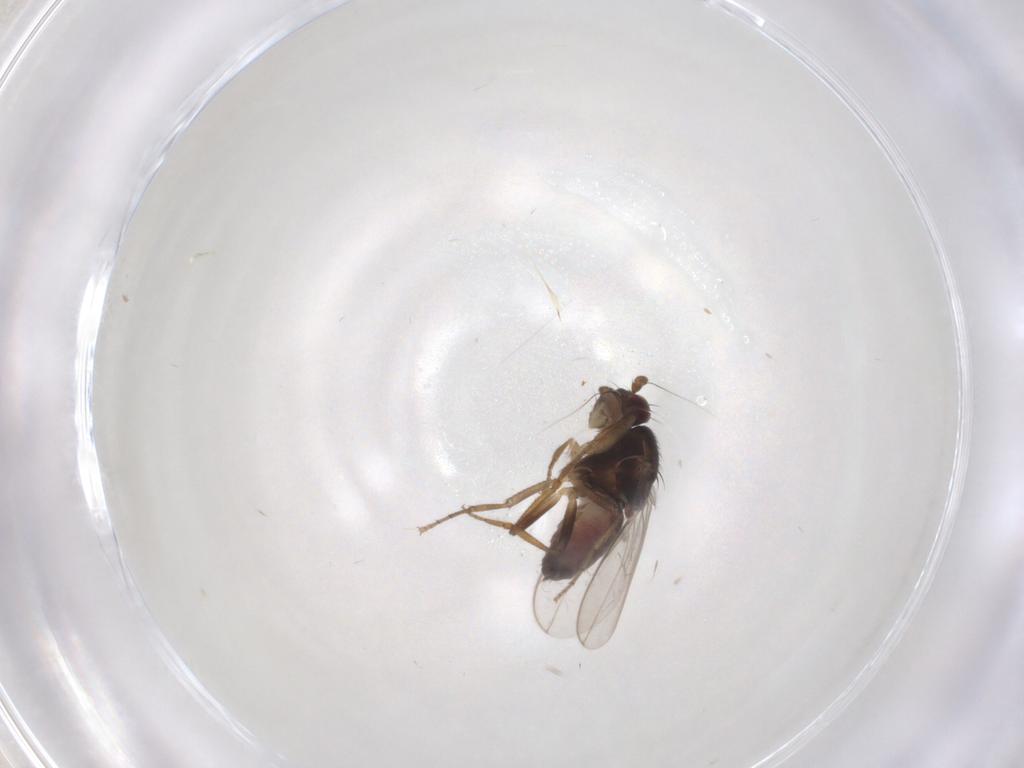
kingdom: Animalia
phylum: Arthropoda
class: Insecta
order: Diptera
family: Sphaeroceridae
